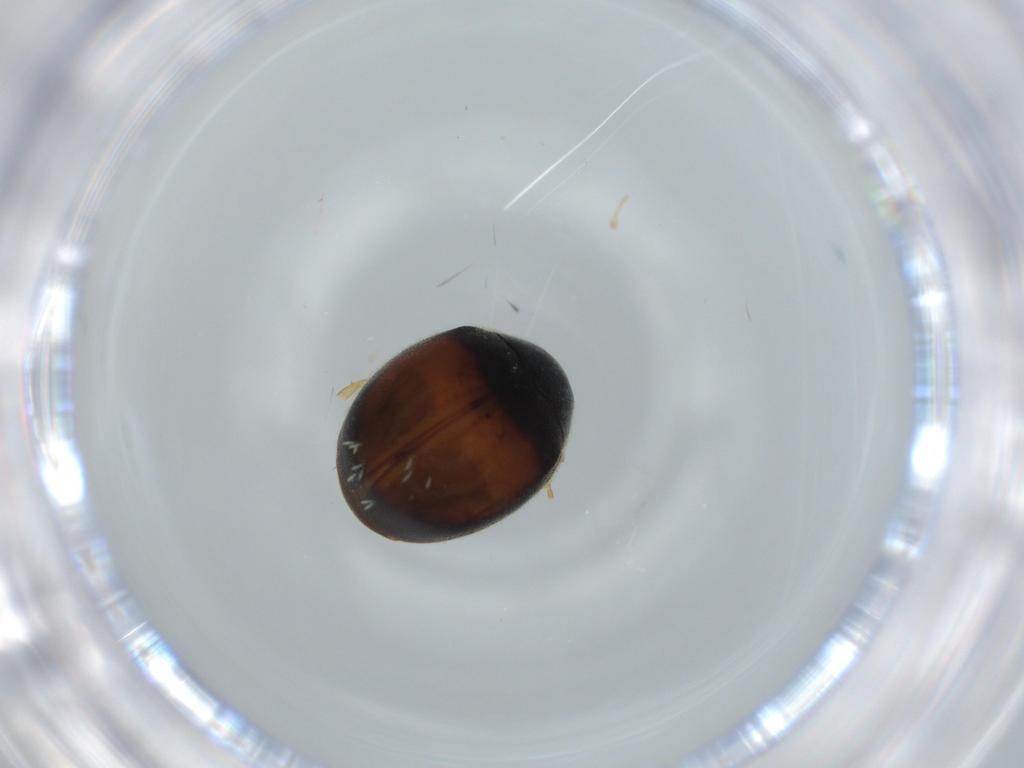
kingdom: Animalia
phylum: Arthropoda
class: Insecta
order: Coleoptera
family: Coccinellidae
